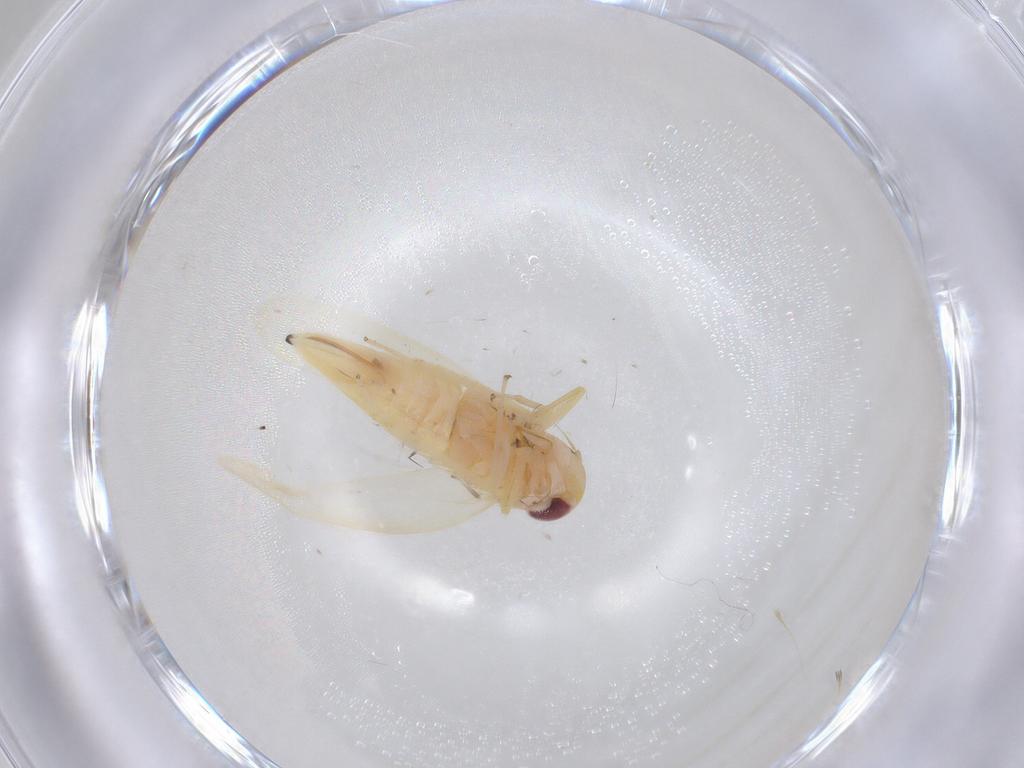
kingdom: Animalia
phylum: Arthropoda
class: Insecta
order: Hemiptera
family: Cicadellidae
